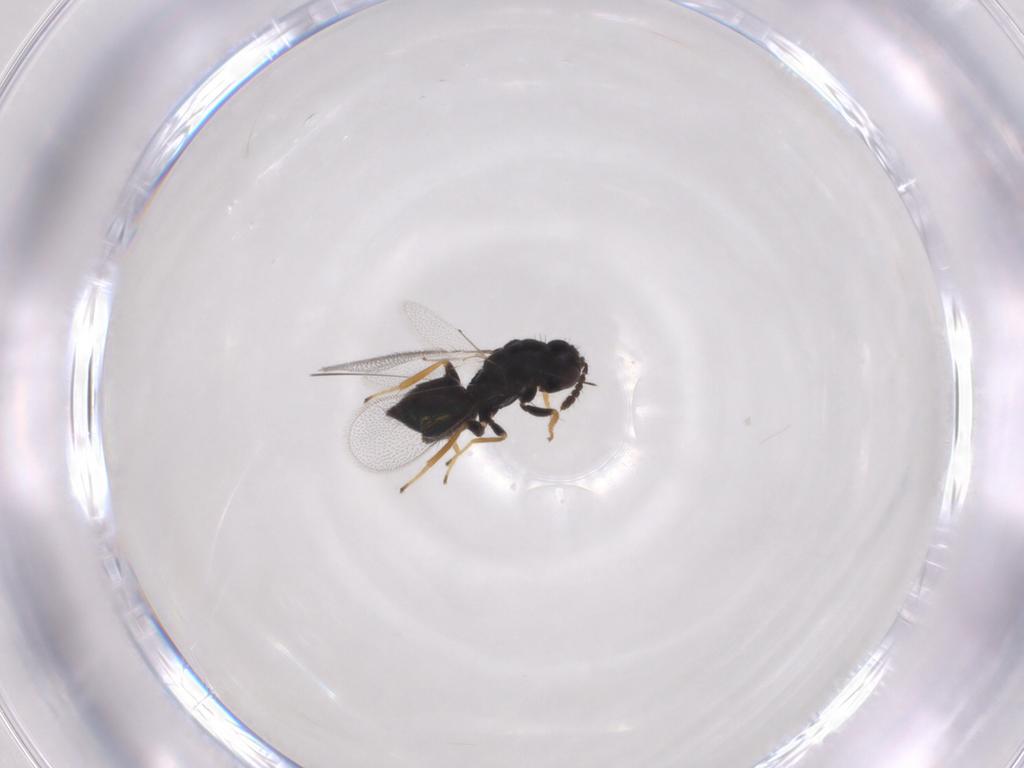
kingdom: Animalia
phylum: Arthropoda
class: Insecta
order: Hymenoptera
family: Eulophidae
